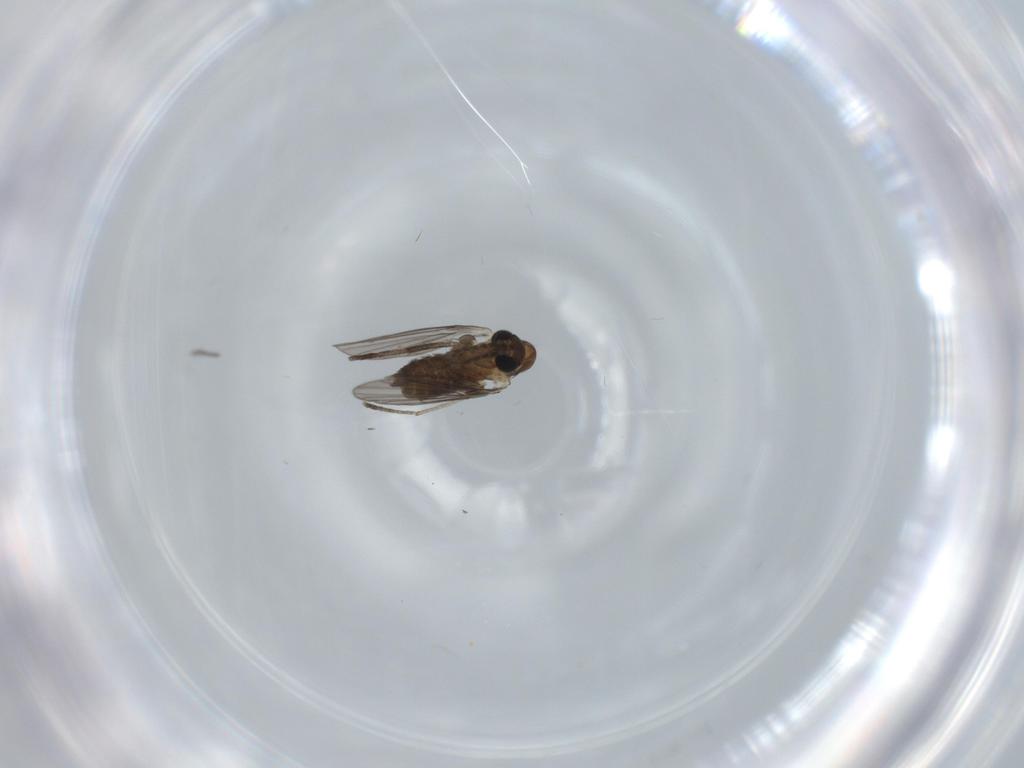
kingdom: Animalia
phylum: Arthropoda
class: Insecta
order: Diptera
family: Psychodidae
